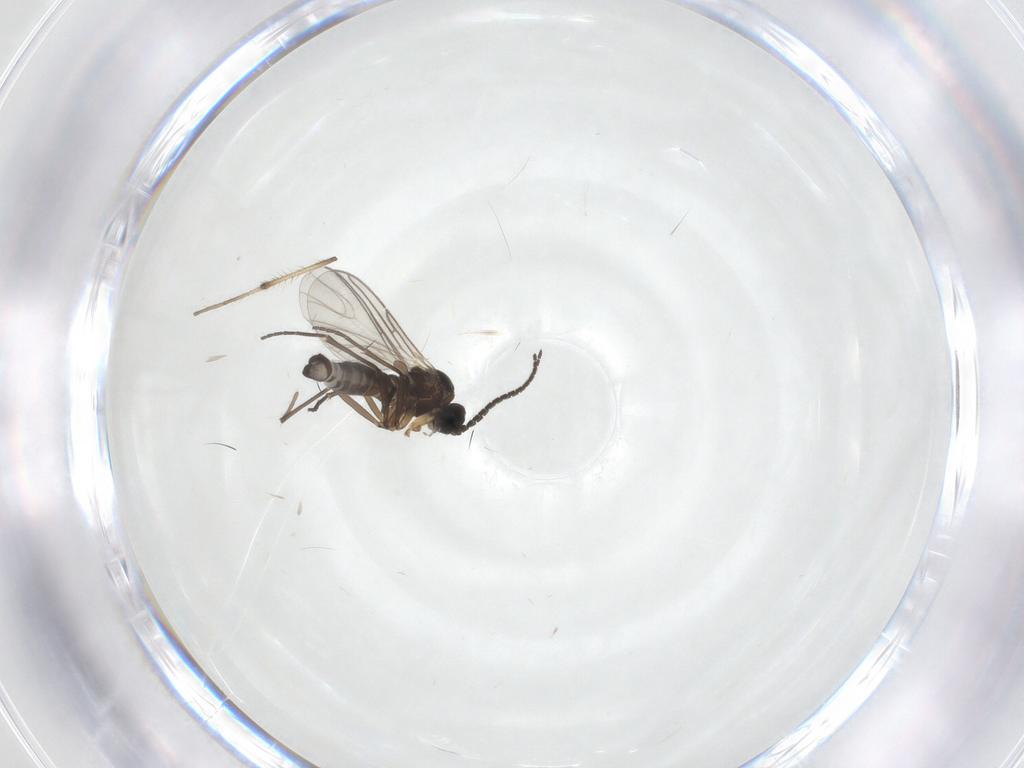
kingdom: Animalia
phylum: Arthropoda
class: Insecta
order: Diptera
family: Sciaridae
